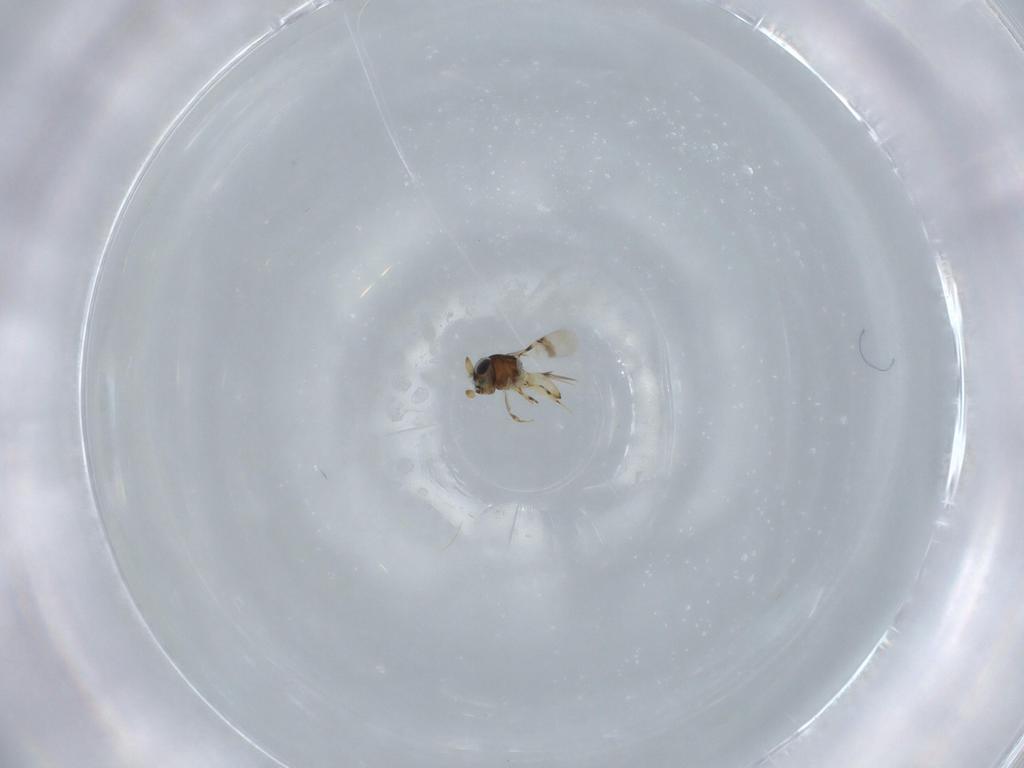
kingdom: Animalia
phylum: Arthropoda
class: Insecta
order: Hymenoptera
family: Scelionidae
